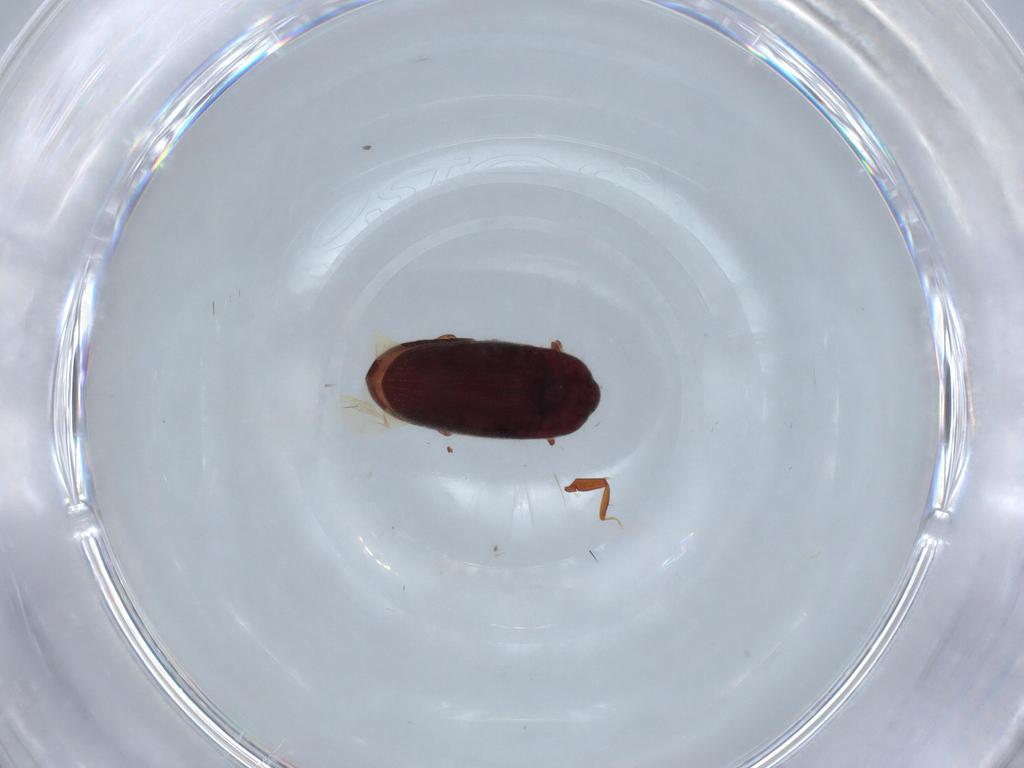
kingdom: Animalia
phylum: Arthropoda
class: Insecta
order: Coleoptera
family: Throscidae
